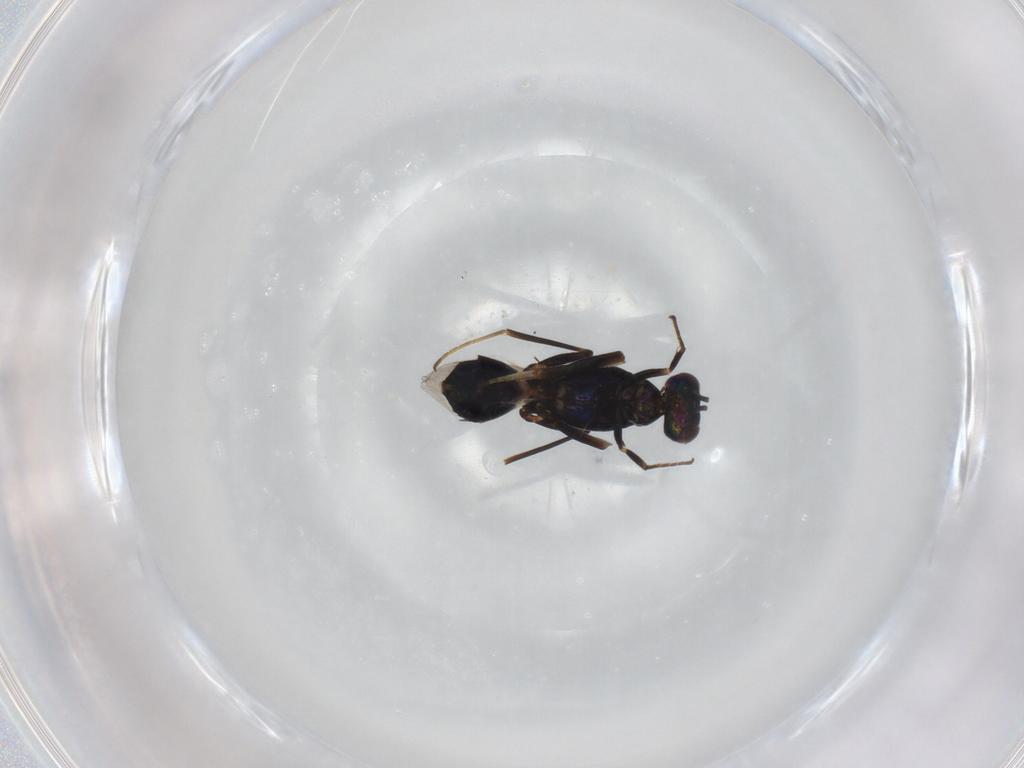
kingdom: Animalia
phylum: Arthropoda
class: Insecta
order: Hymenoptera
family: Eupelmidae
